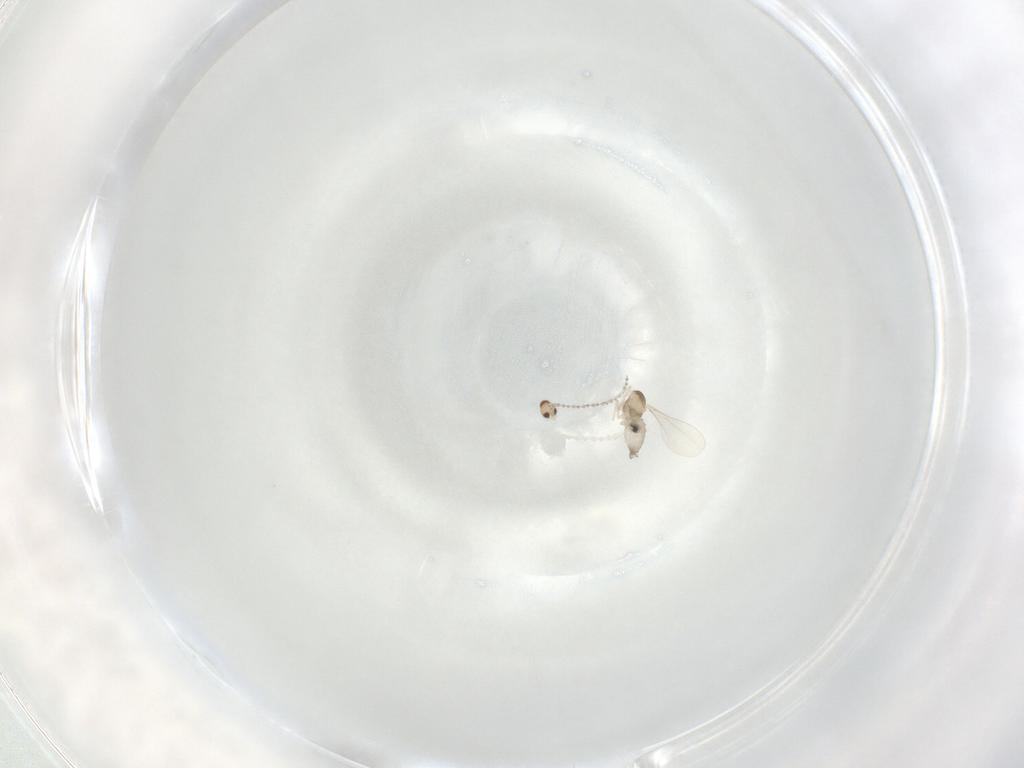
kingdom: Animalia
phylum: Arthropoda
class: Insecta
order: Diptera
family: Cecidomyiidae
